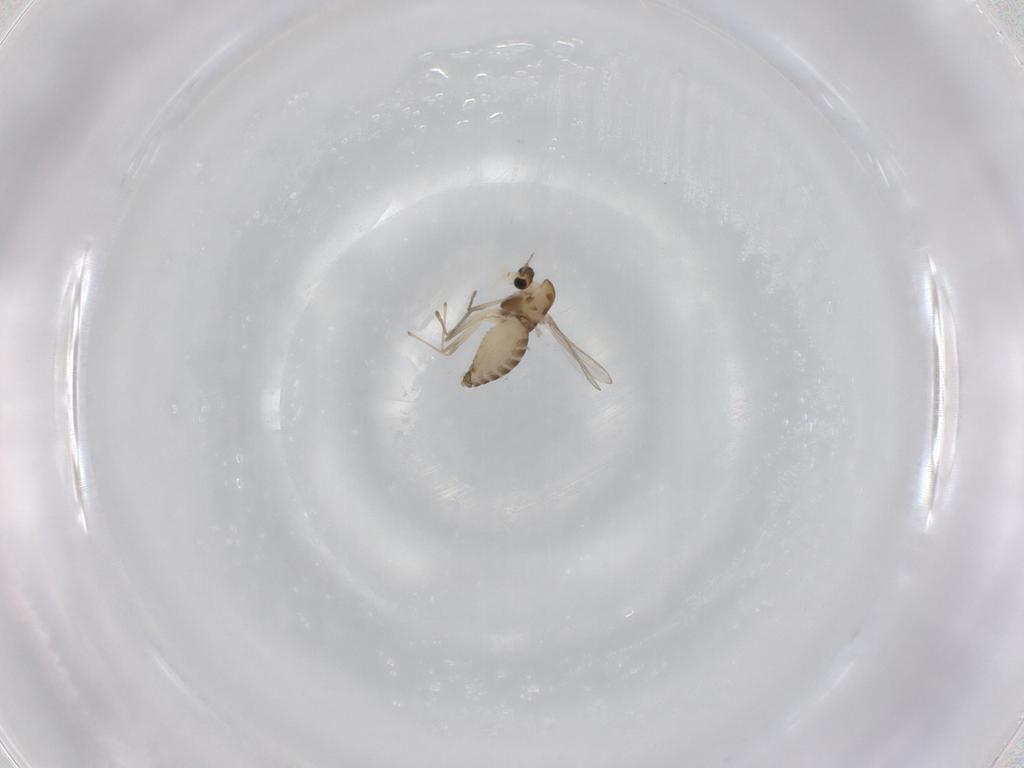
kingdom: Animalia
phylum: Arthropoda
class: Insecta
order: Diptera
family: Chironomidae
